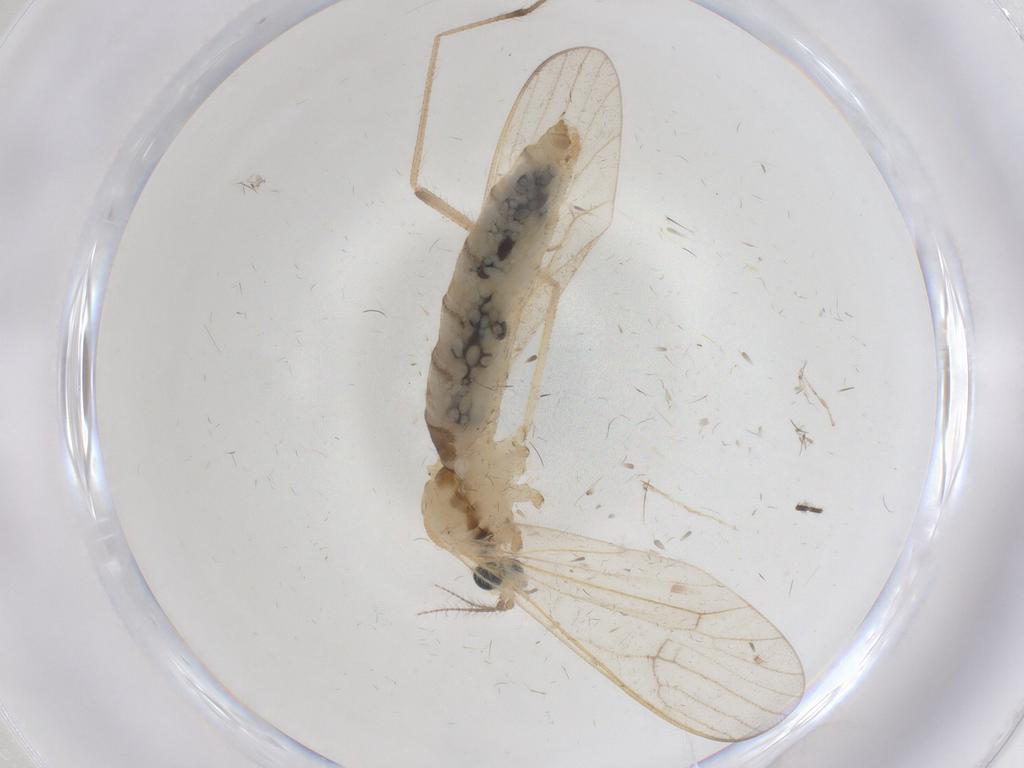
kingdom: Animalia
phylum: Arthropoda
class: Insecta
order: Diptera
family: Limoniidae
